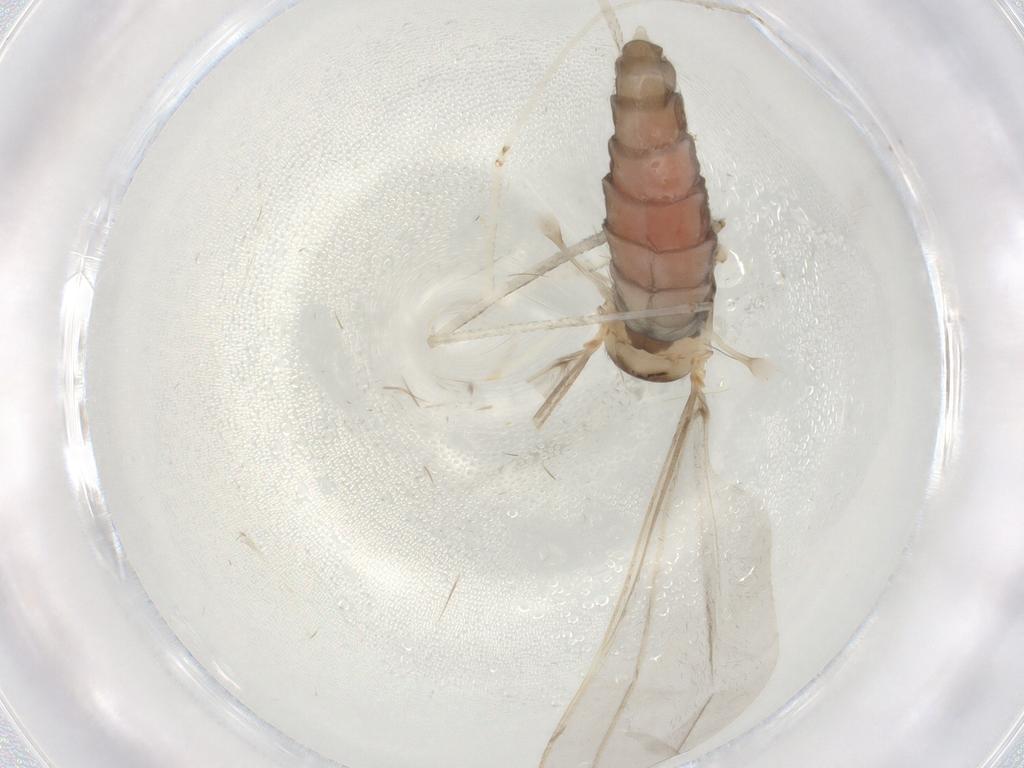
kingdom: Animalia
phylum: Arthropoda
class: Insecta
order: Diptera
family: Cecidomyiidae
